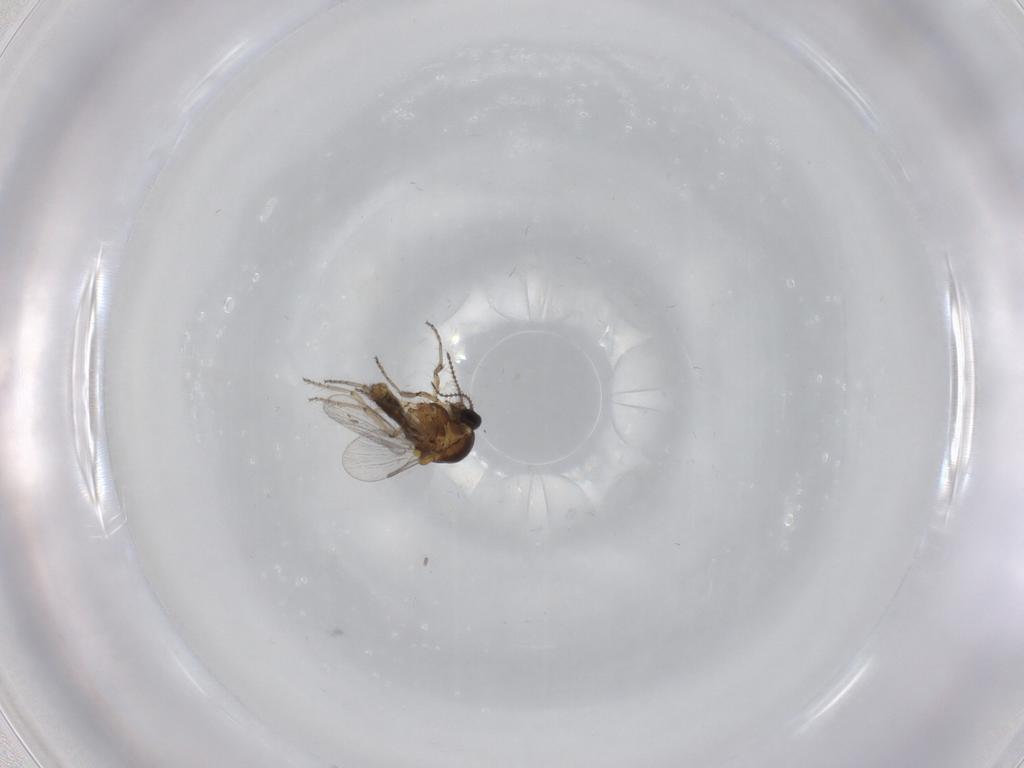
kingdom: Animalia
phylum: Arthropoda
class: Insecta
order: Diptera
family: Ceratopogonidae
